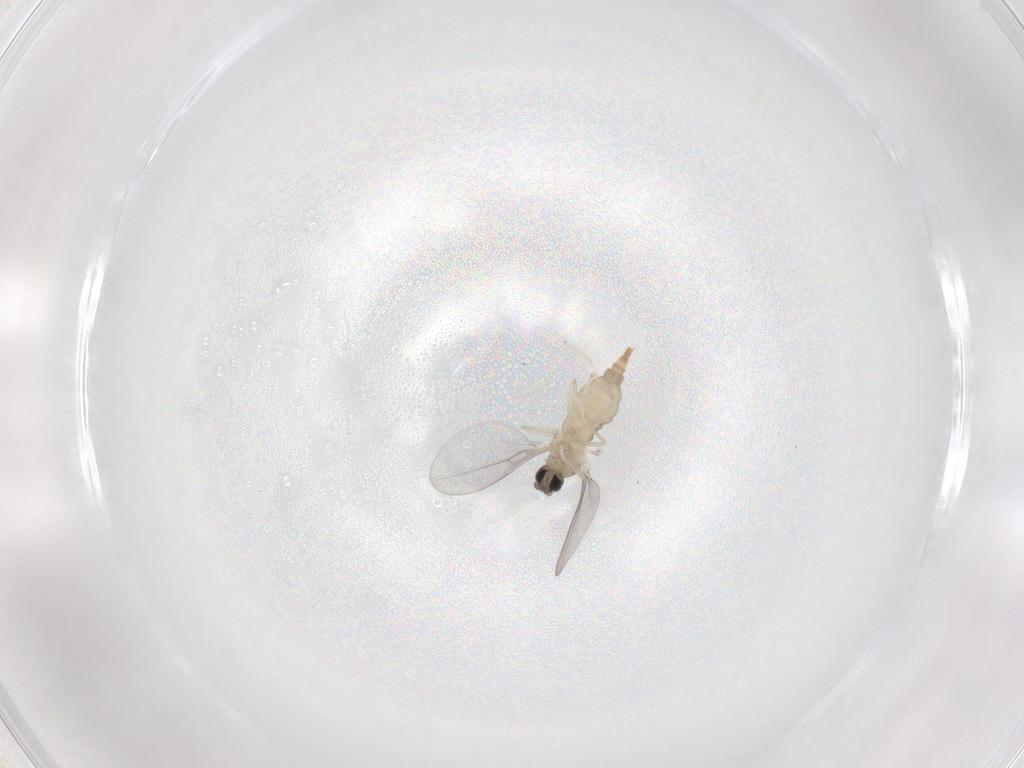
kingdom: Animalia
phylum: Arthropoda
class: Insecta
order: Diptera
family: Cecidomyiidae
